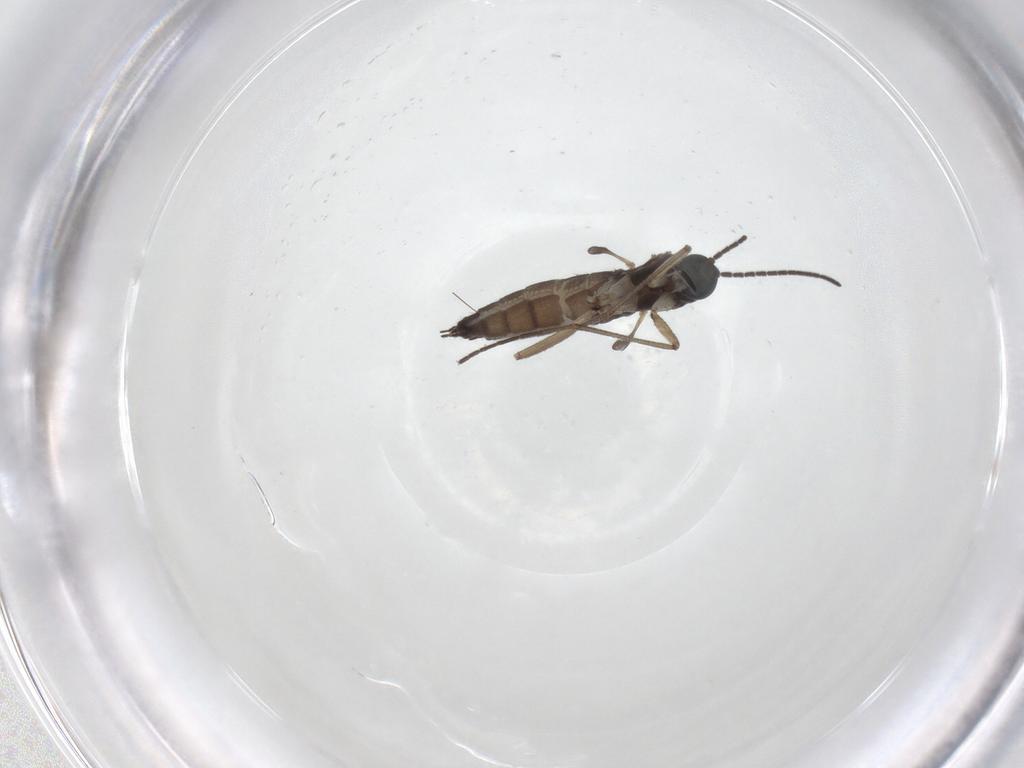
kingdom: Animalia
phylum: Arthropoda
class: Insecta
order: Diptera
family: Sciaridae
